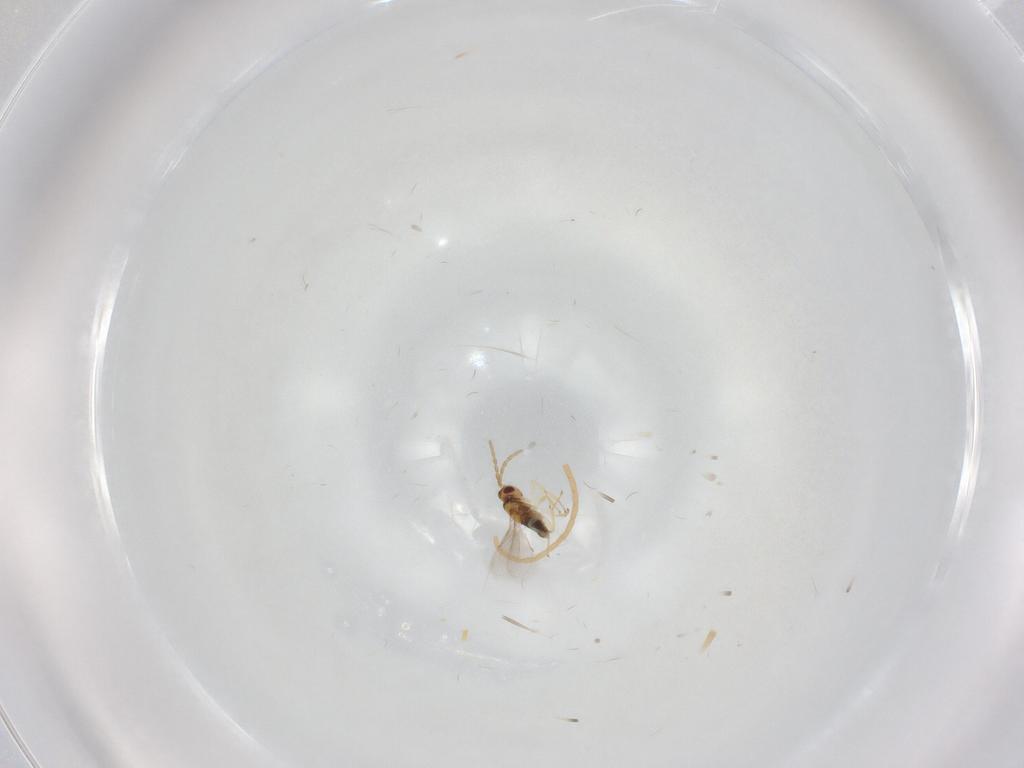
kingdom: Animalia
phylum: Arthropoda
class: Insecta
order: Hymenoptera
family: Aphelinidae
